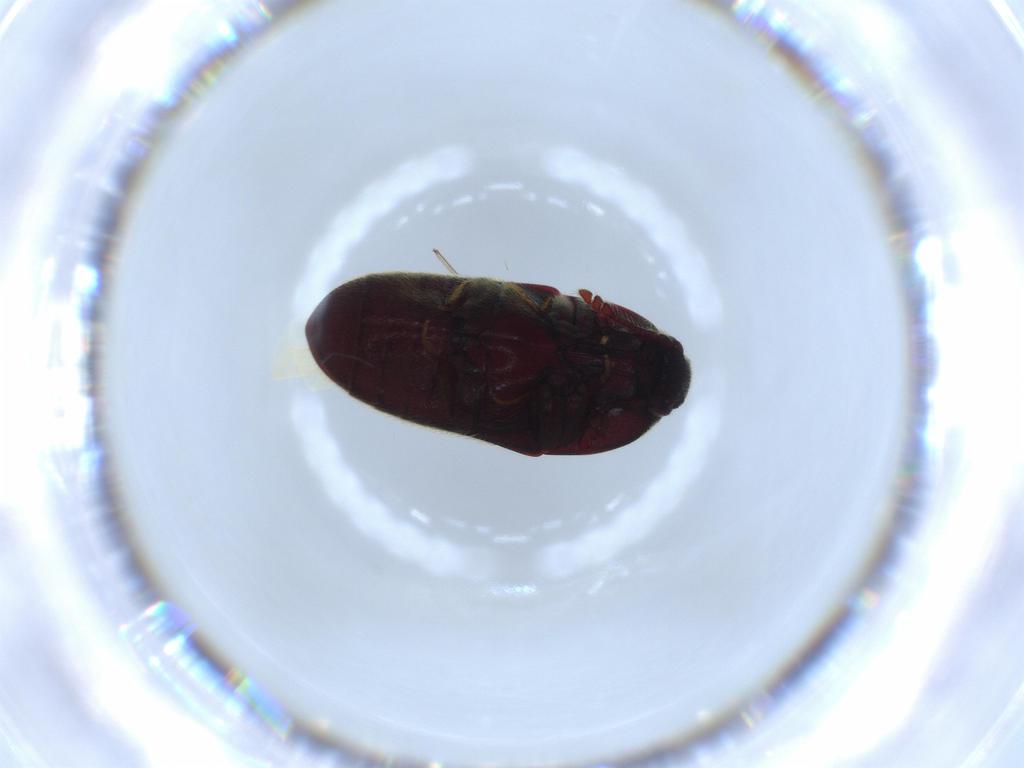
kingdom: Animalia
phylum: Arthropoda
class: Insecta
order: Coleoptera
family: Throscidae
